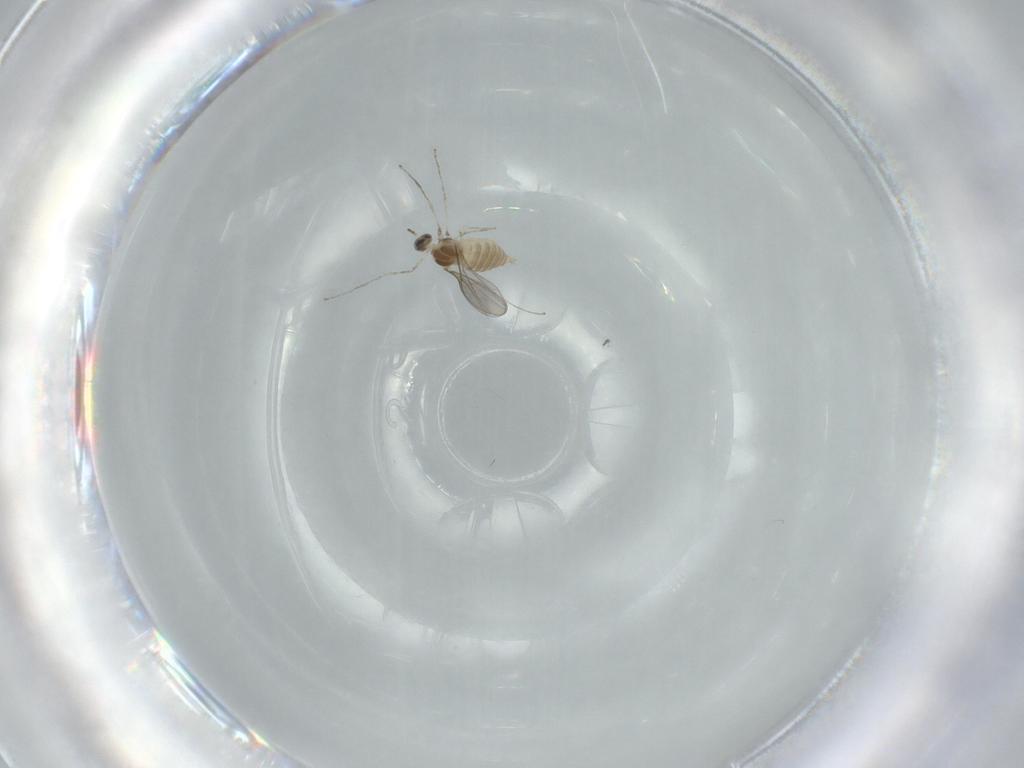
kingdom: Animalia
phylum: Arthropoda
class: Insecta
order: Diptera
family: Cecidomyiidae
